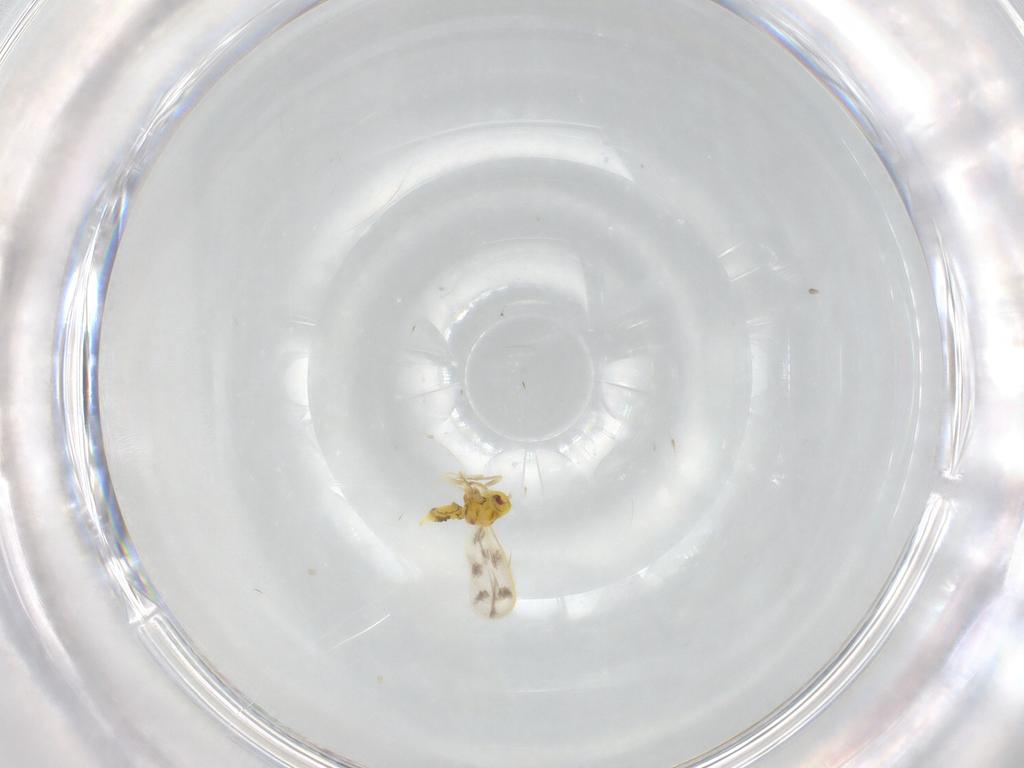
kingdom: Animalia
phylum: Arthropoda
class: Insecta
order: Hemiptera
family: Aleyrodidae
